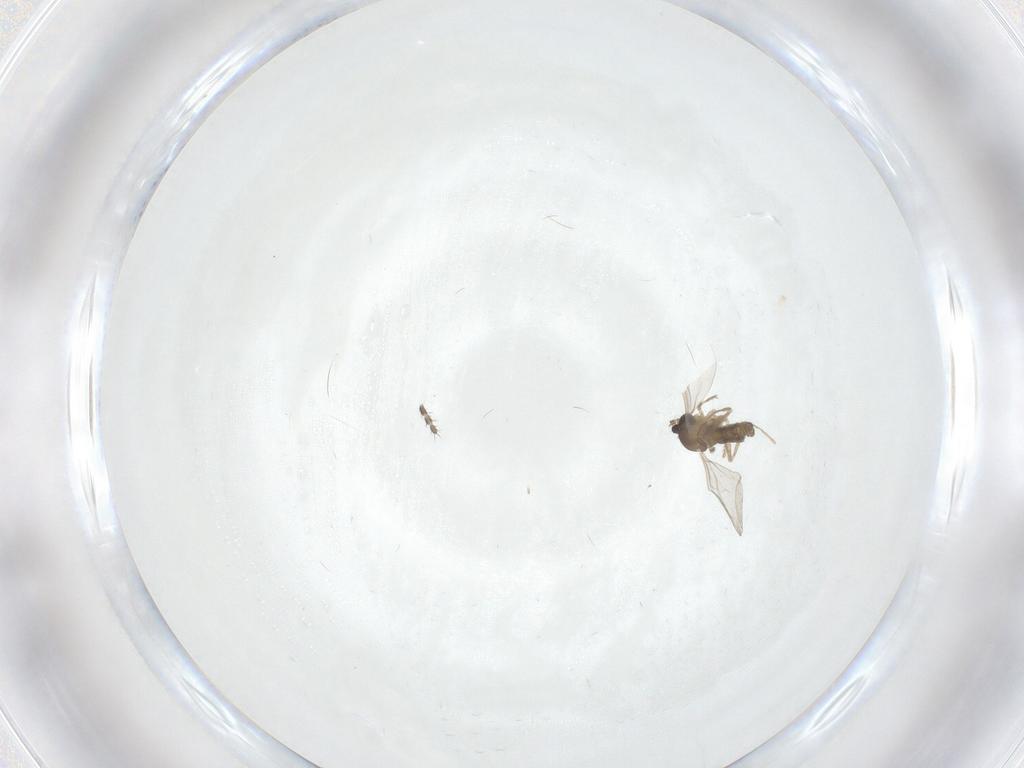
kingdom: Animalia
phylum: Arthropoda
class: Insecta
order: Diptera
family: Cecidomyiidae
